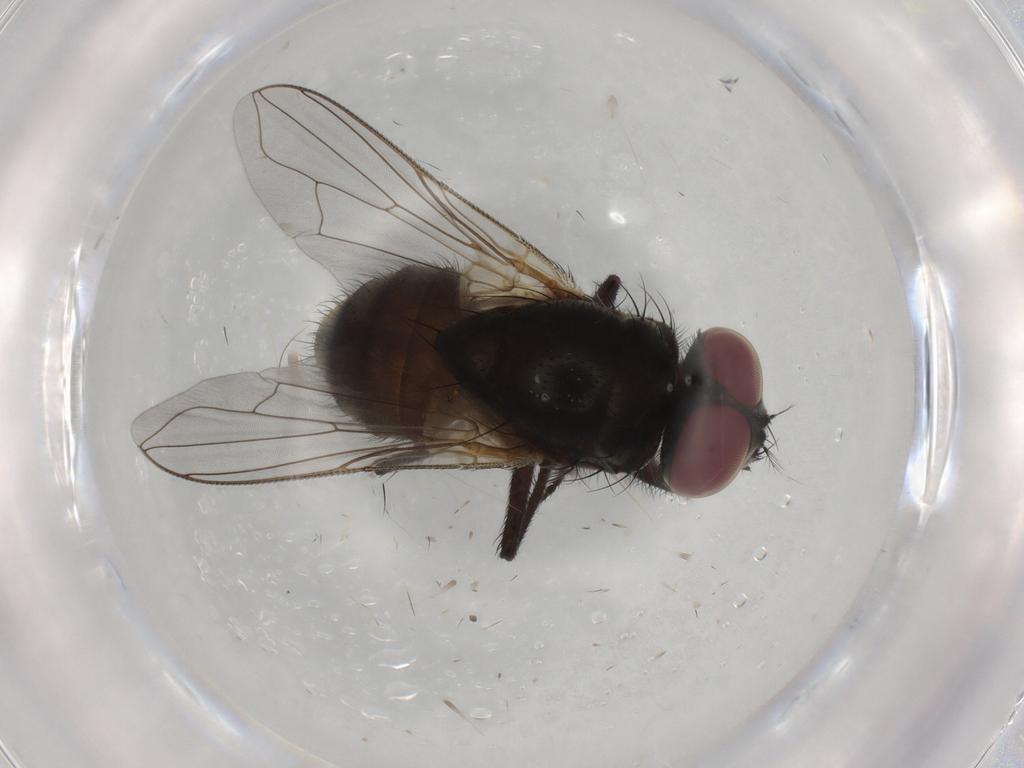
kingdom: Animalia
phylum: Arthropoda
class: Insecta
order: Diptera
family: Muscidae
